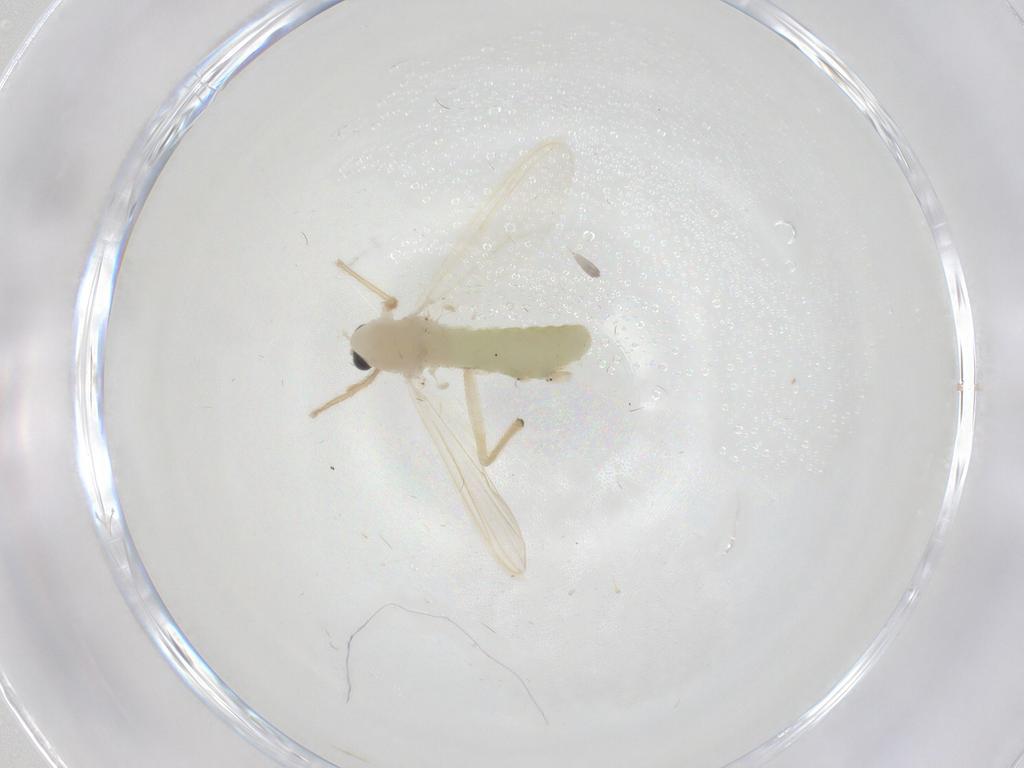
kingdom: Animalia
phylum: Arthropoda
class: Insecta
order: Diptera
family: Chironomidae
